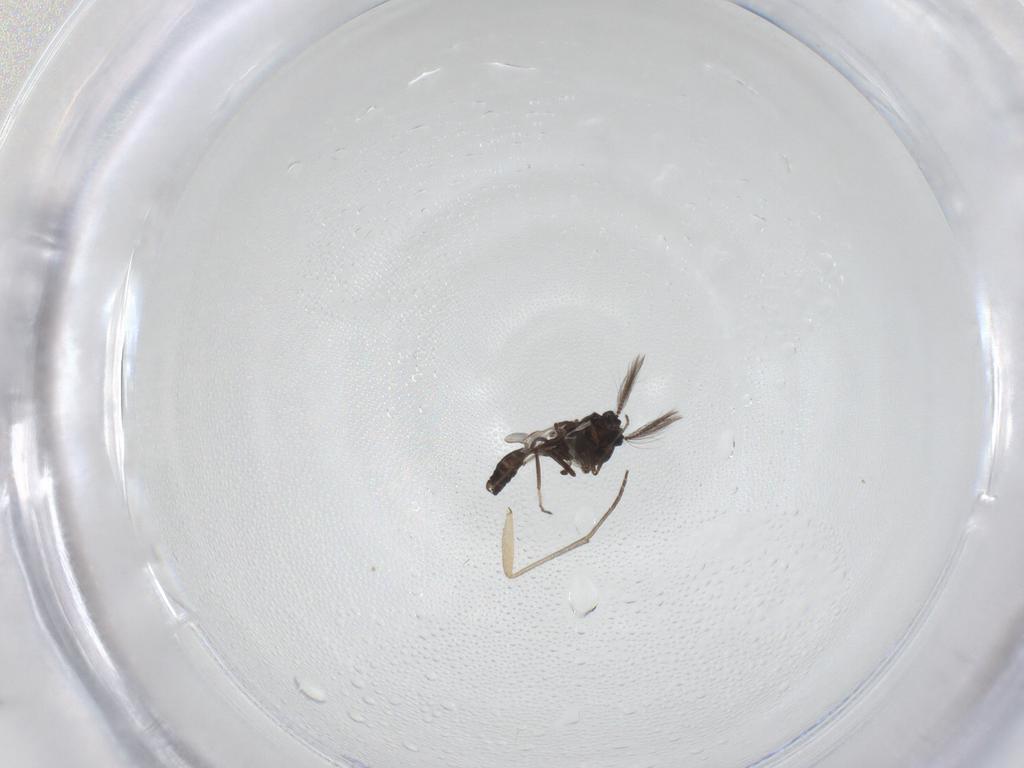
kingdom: Animalia
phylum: Arthropoda
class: Insecta
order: Diptera
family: Ceratopogonidae
